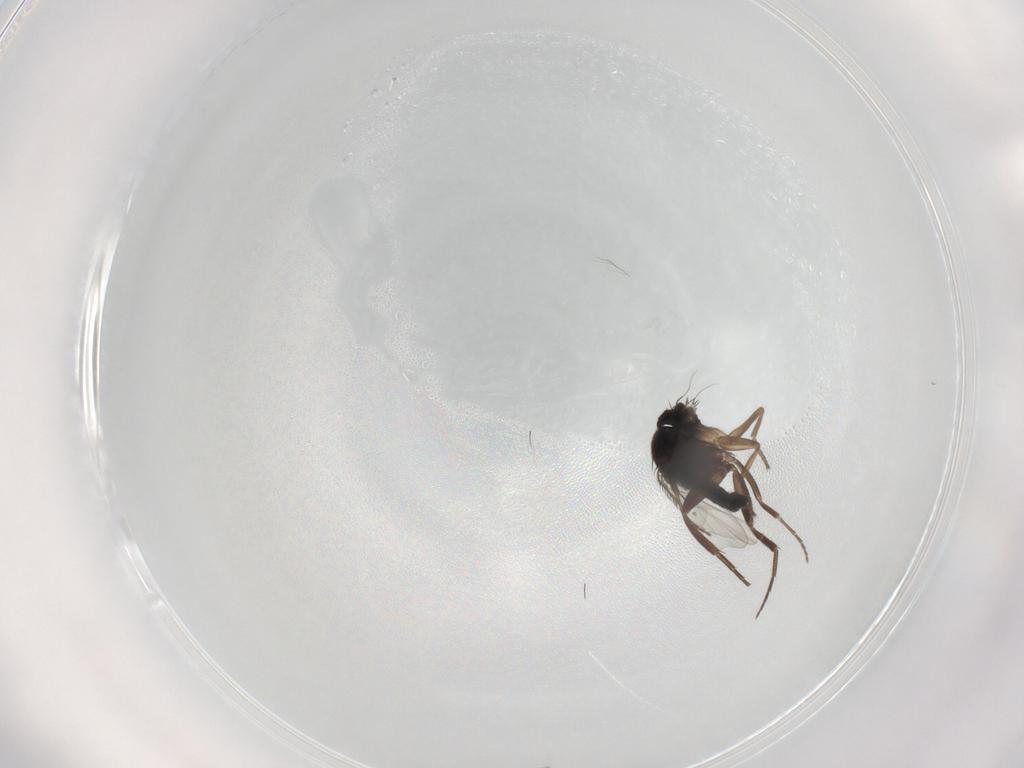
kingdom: Animalia
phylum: Arthropoda
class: Insecta
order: Diptera
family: Phoridae
